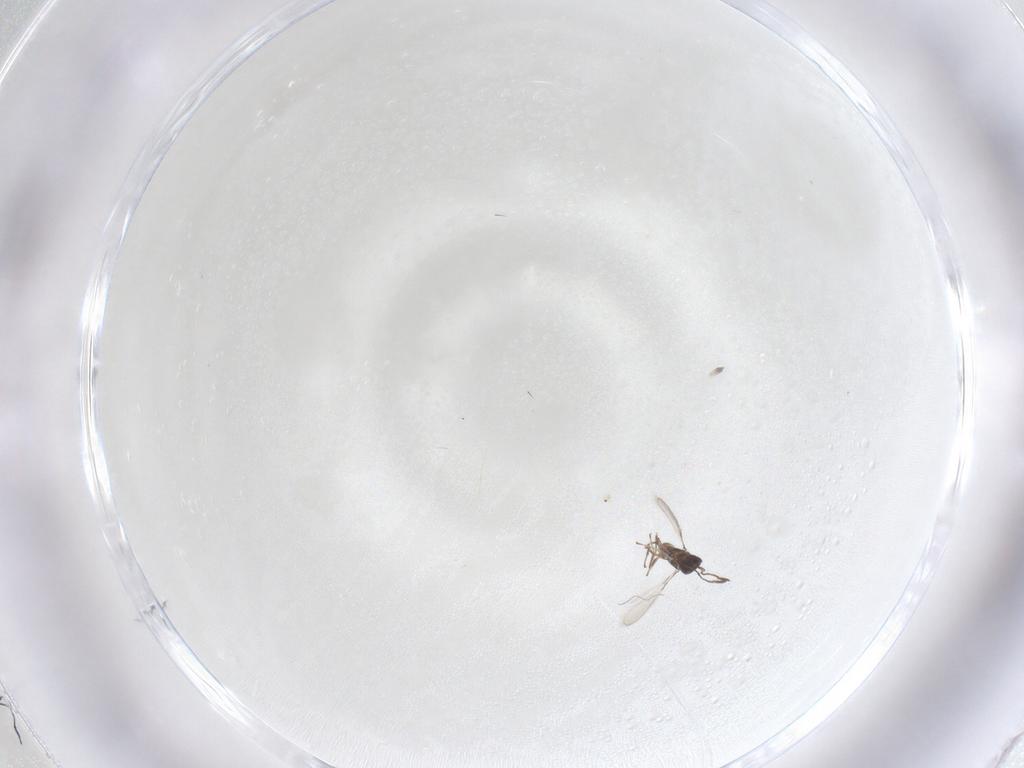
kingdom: Animalia
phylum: Arthropoda
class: Insecta
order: Hymenoptera
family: Mymaridae
